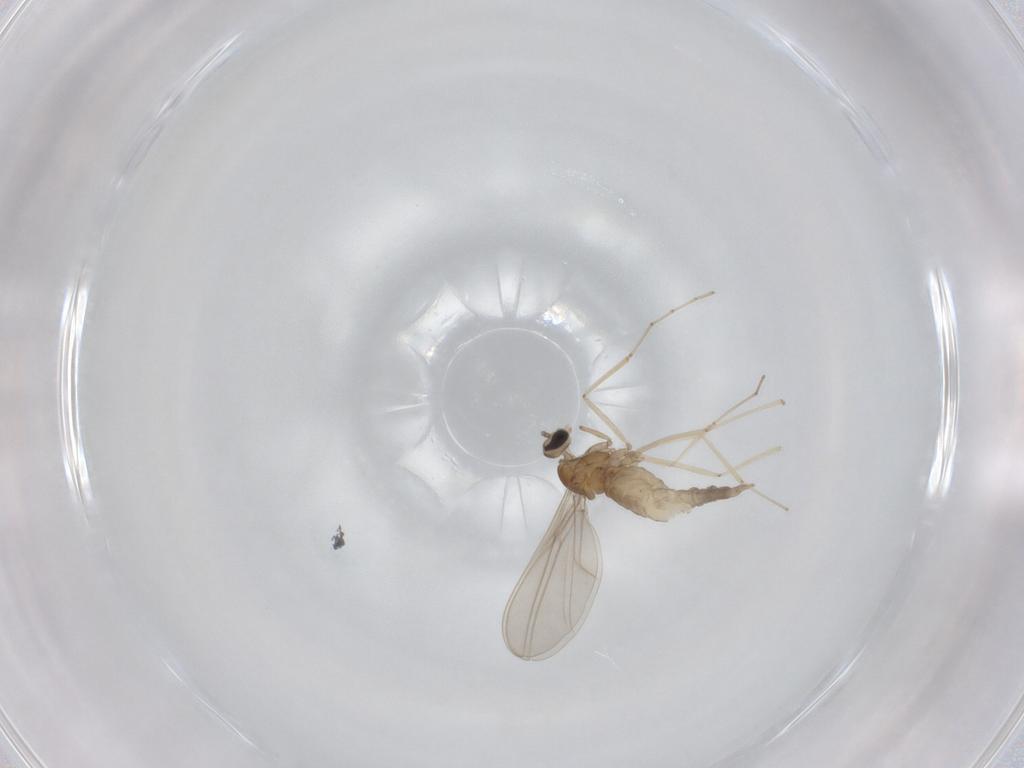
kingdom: Animalia
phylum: Arthropoda
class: Insecta
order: Diptera
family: Cecidomyiidae
